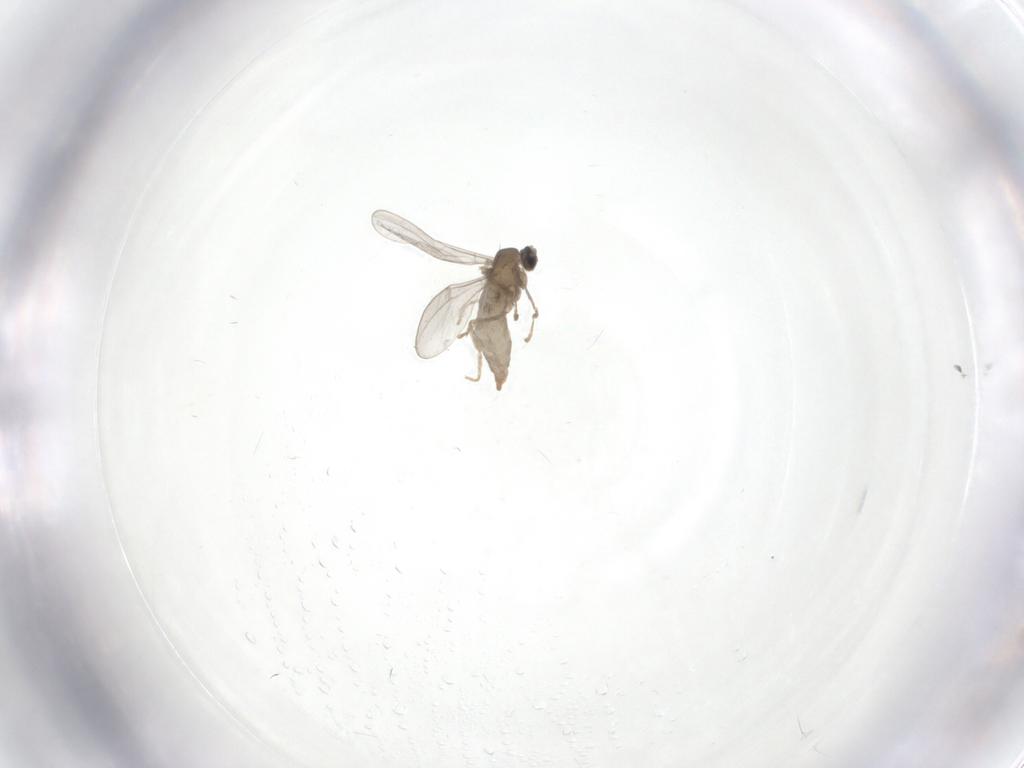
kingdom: Animalia
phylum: Arthropoda
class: Insecta
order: Diptera
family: Cecidomyiidae
